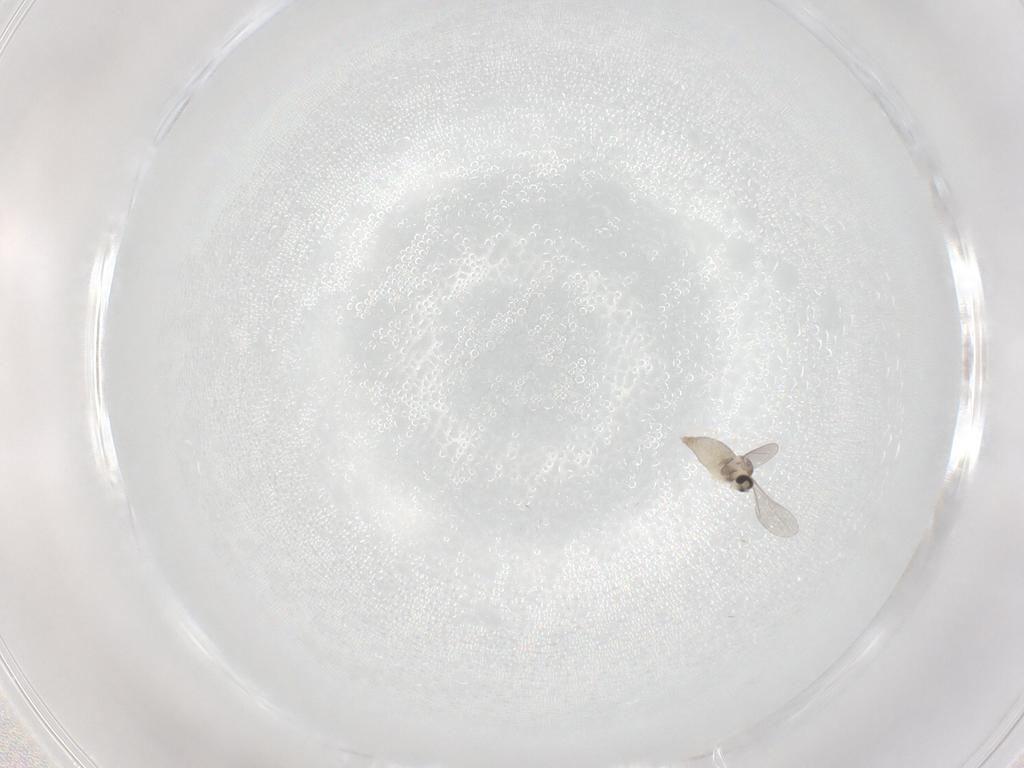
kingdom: Animalia
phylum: Arthropoda
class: Insecta
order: Diptera
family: Cecidomyiidae
